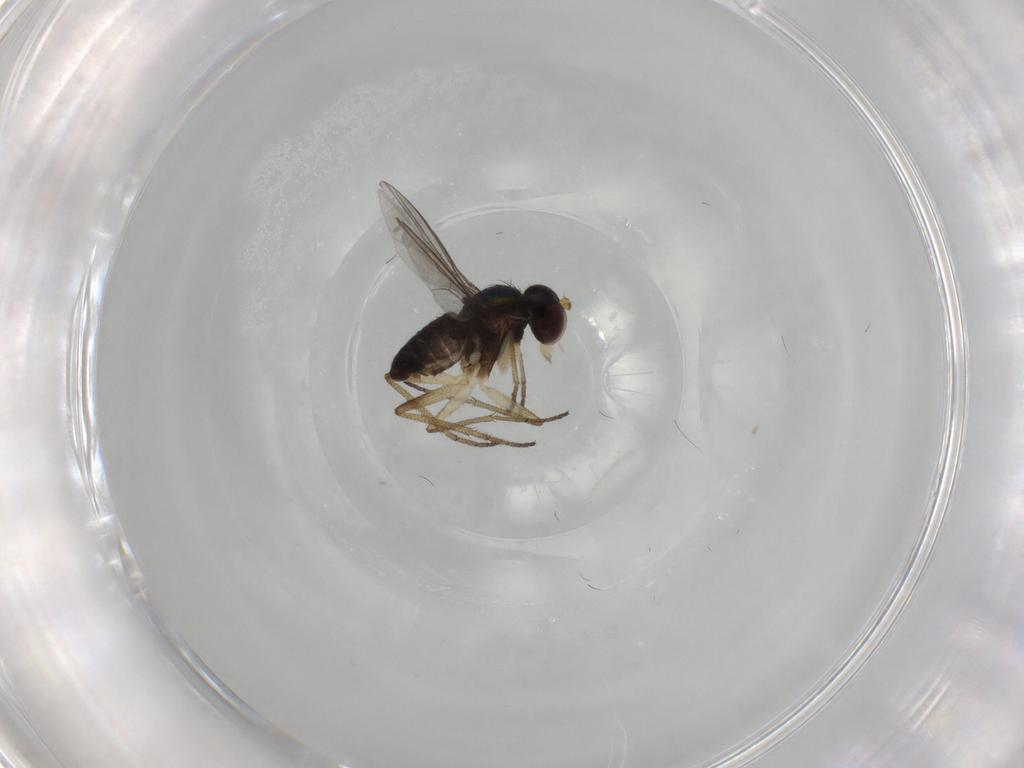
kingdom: Animalia
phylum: Arthropoda
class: Insecta
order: Diptera
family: Dolichopodidae
